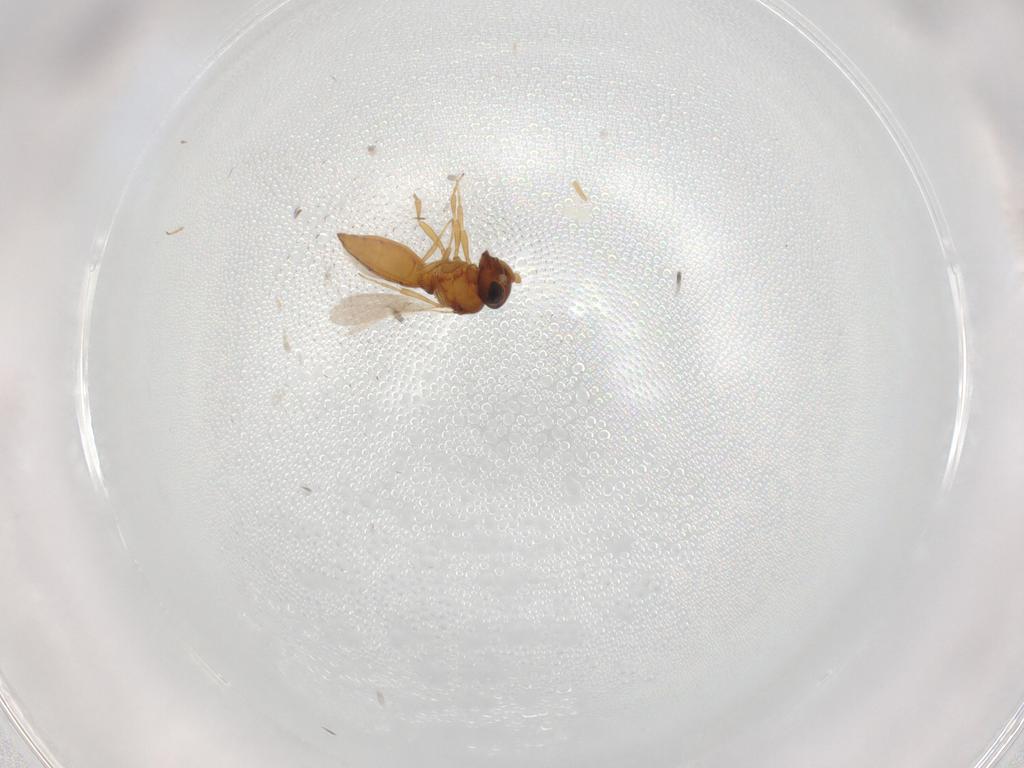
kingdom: Animalia
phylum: Arthropoda
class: Insecta
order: Hymenoptera
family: Scelionidae
